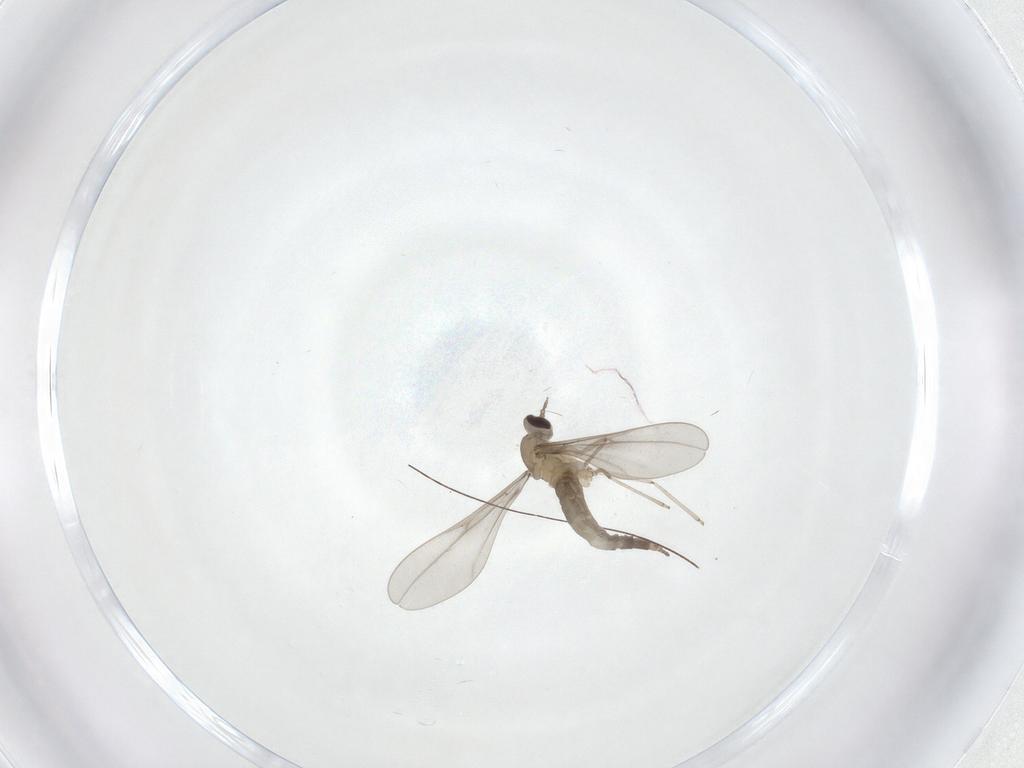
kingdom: Animalia
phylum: Arthropoda
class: Insecta
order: Diptera
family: Cecidomyiidae
